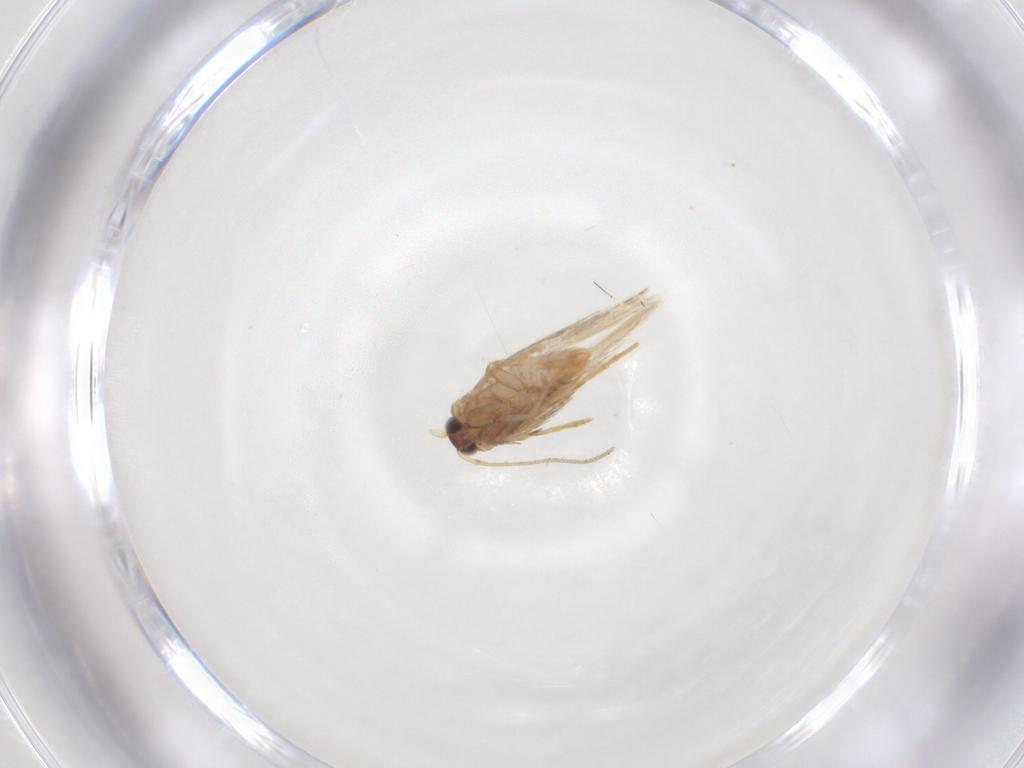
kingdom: Animalia
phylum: Arthropoda
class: Insecta
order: Lepidoptera
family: Nepticulidae
